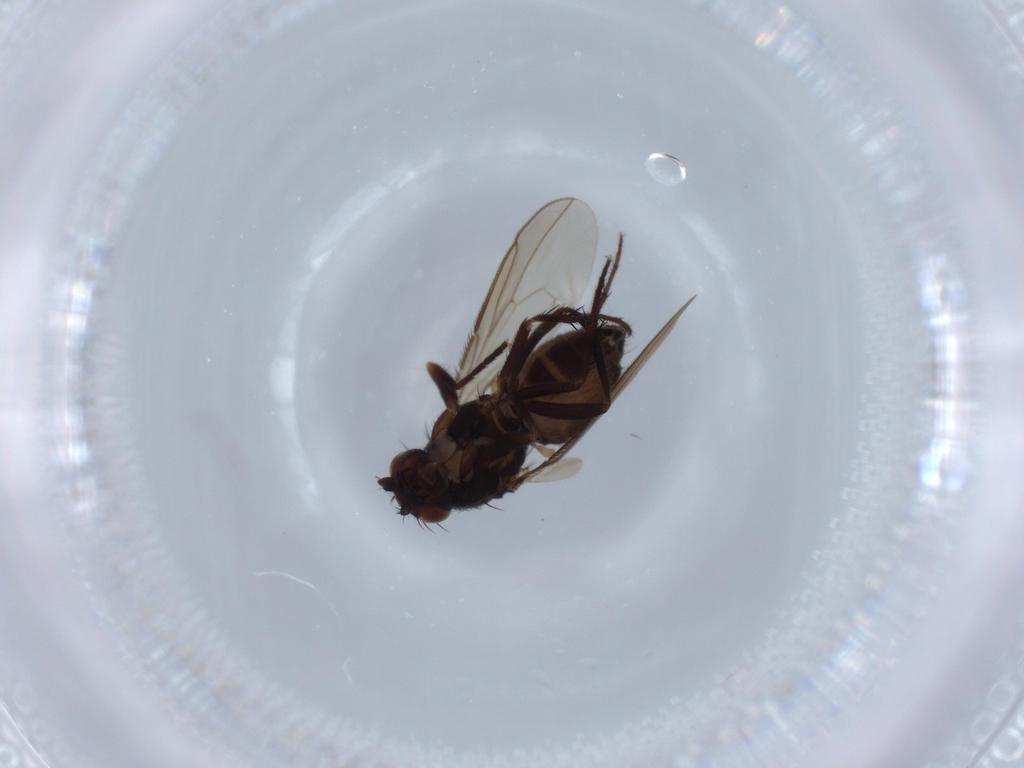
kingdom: Animalia
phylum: Arthropoda
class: Insecta
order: Diptera
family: Sphaeroceridae
